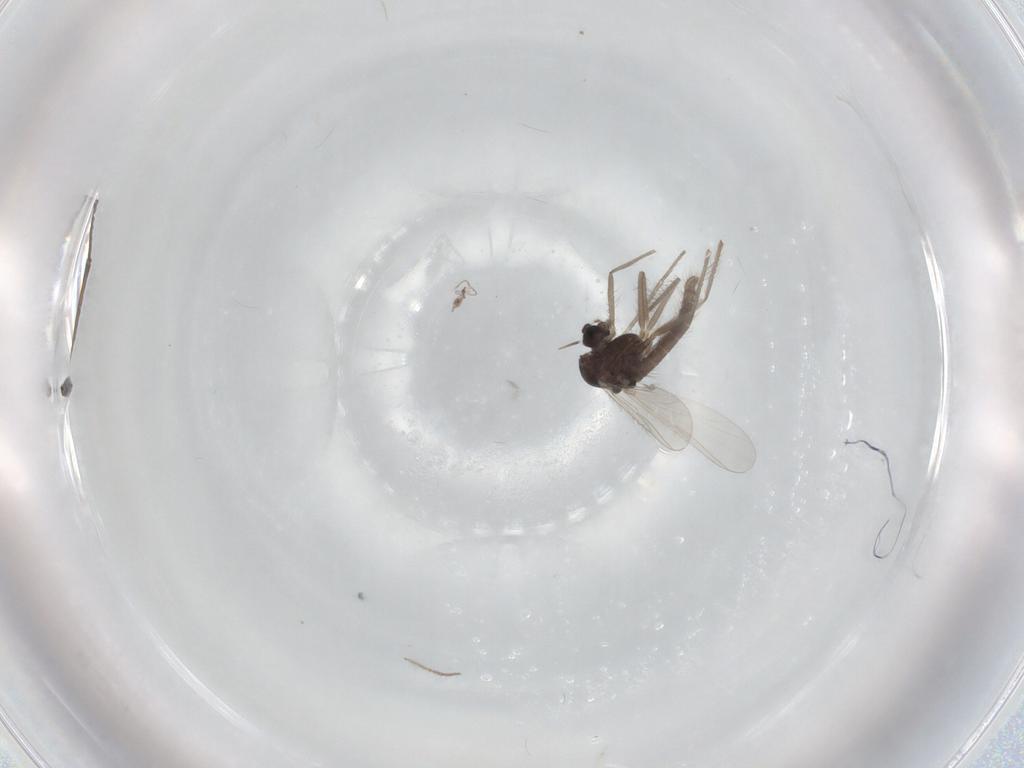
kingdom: Animalia
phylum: Arthropoda
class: Insecta
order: Diptera
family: Chironomidae
